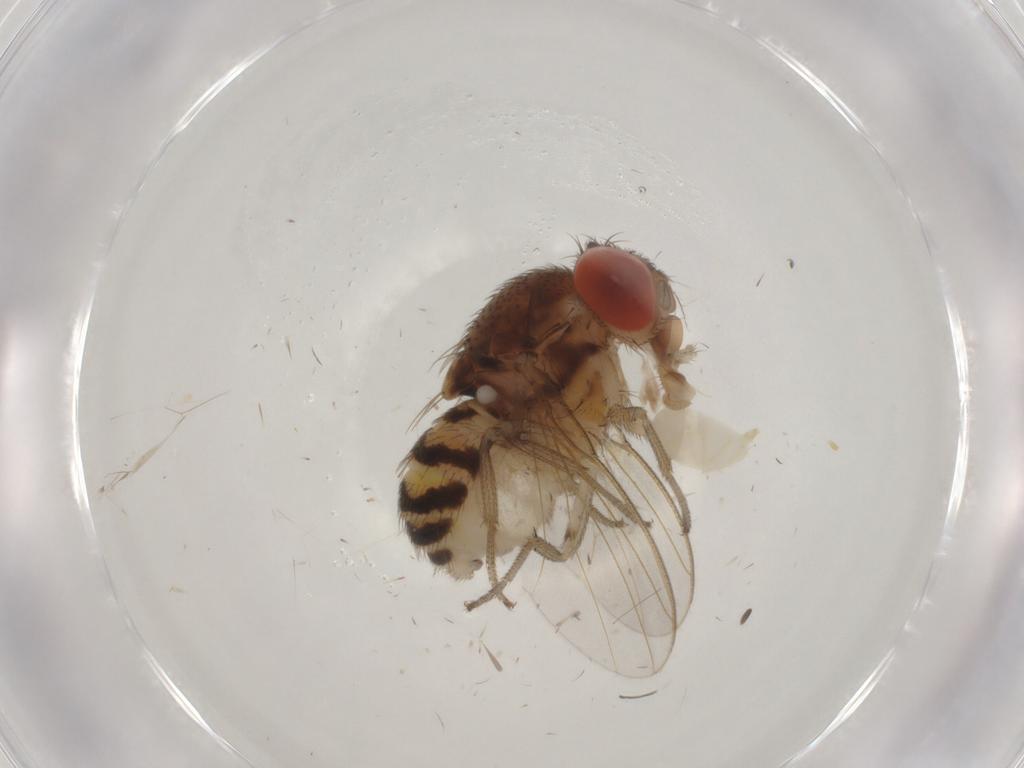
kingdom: Animalia
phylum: Arthropoda
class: Insecta
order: Diptera
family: Drosophilidae
